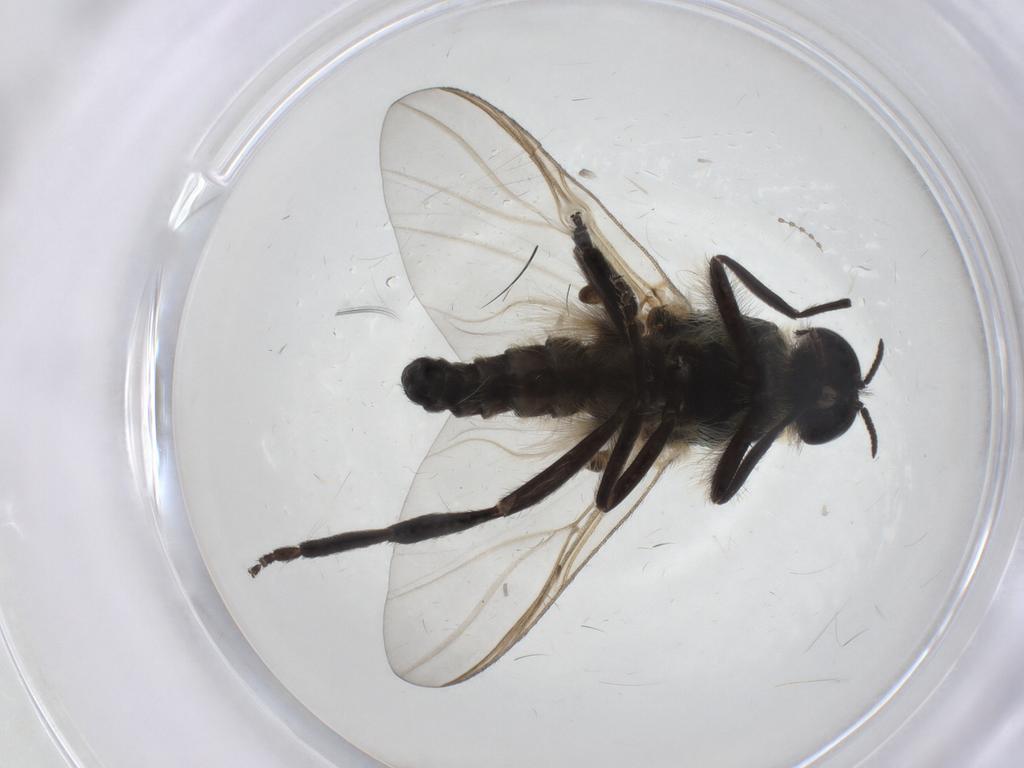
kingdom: Animalia
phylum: Arthropoda
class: Insecta
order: Diptera
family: Simuliidae
